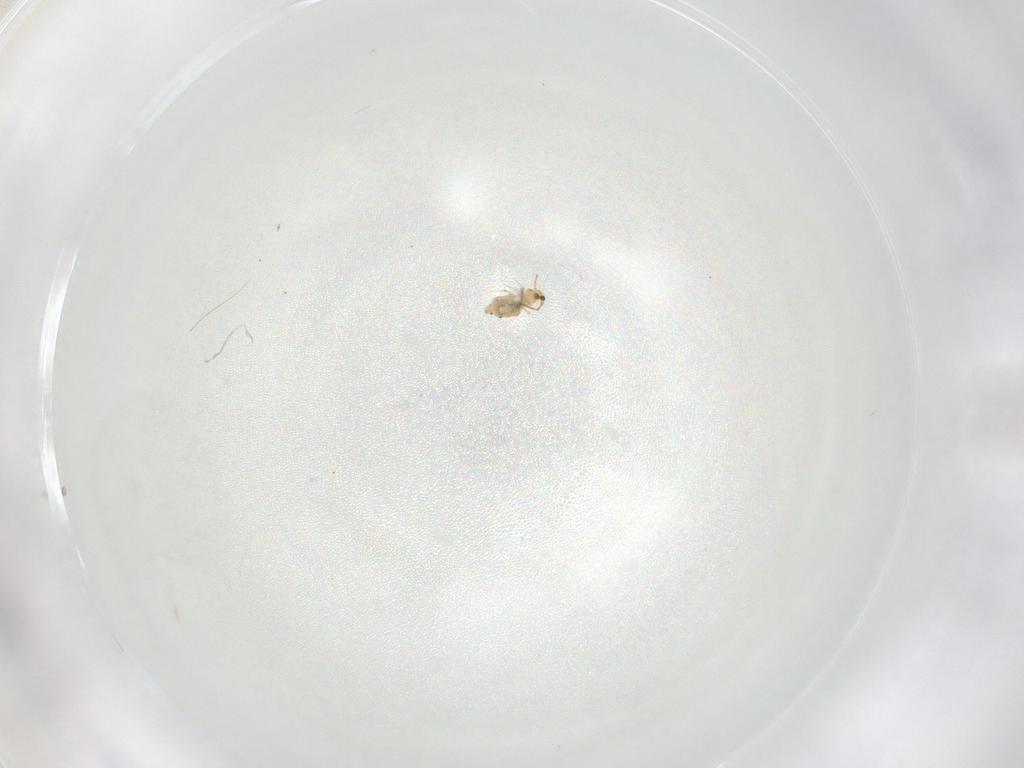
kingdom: Animalia
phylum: Arthropoda
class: Collembola
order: Symphypleona
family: Bourletiellidae
